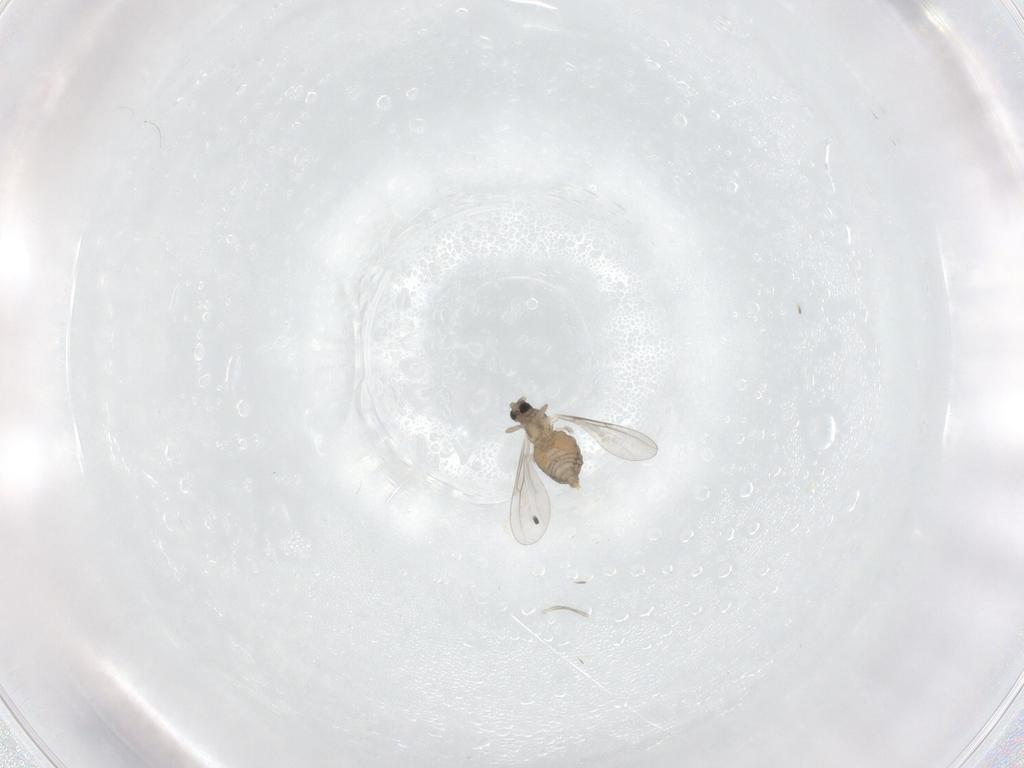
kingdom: Animalia
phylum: Arthropoda
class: Insecta
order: Diptera
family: Cecidomyiidae
